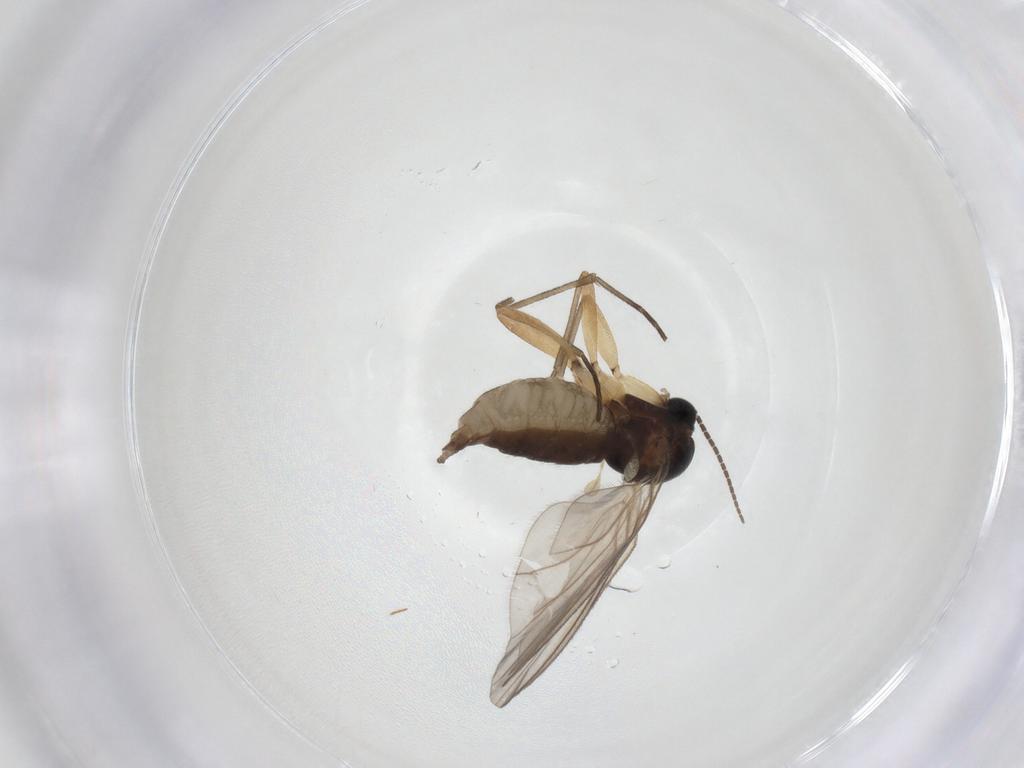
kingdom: Animalia
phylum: Arthropoda
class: Insecta
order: Diptera
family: Sciaridae
